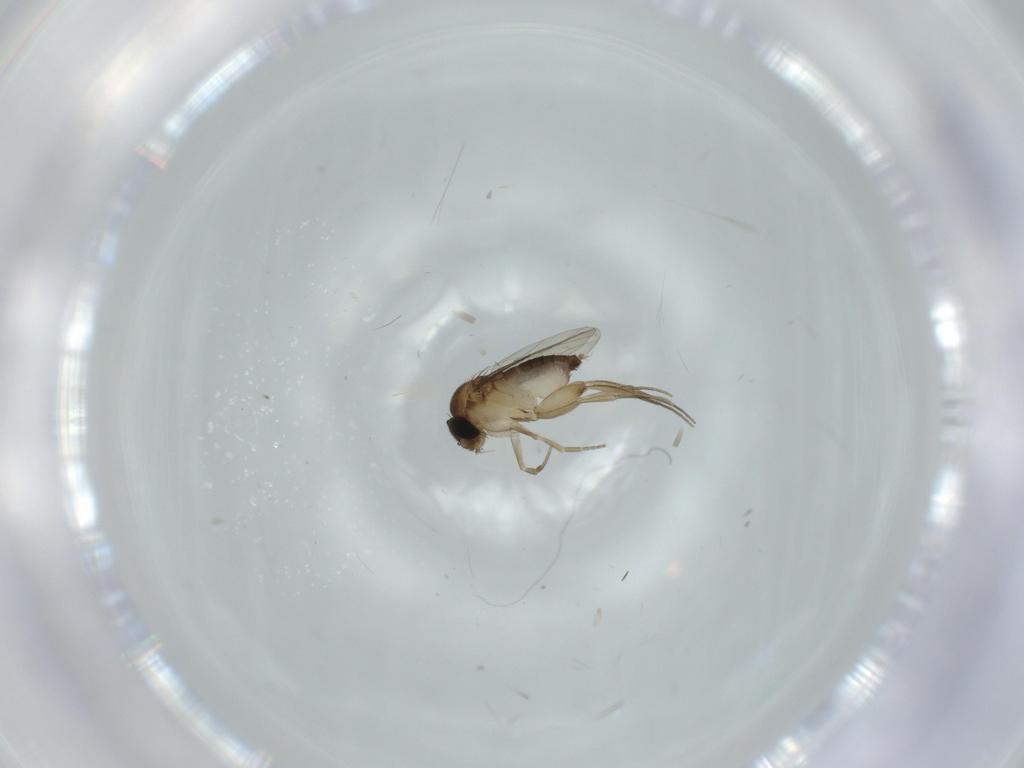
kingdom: Animalia
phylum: Arthropoda
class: Insecta
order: Diptera
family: Phoridae
